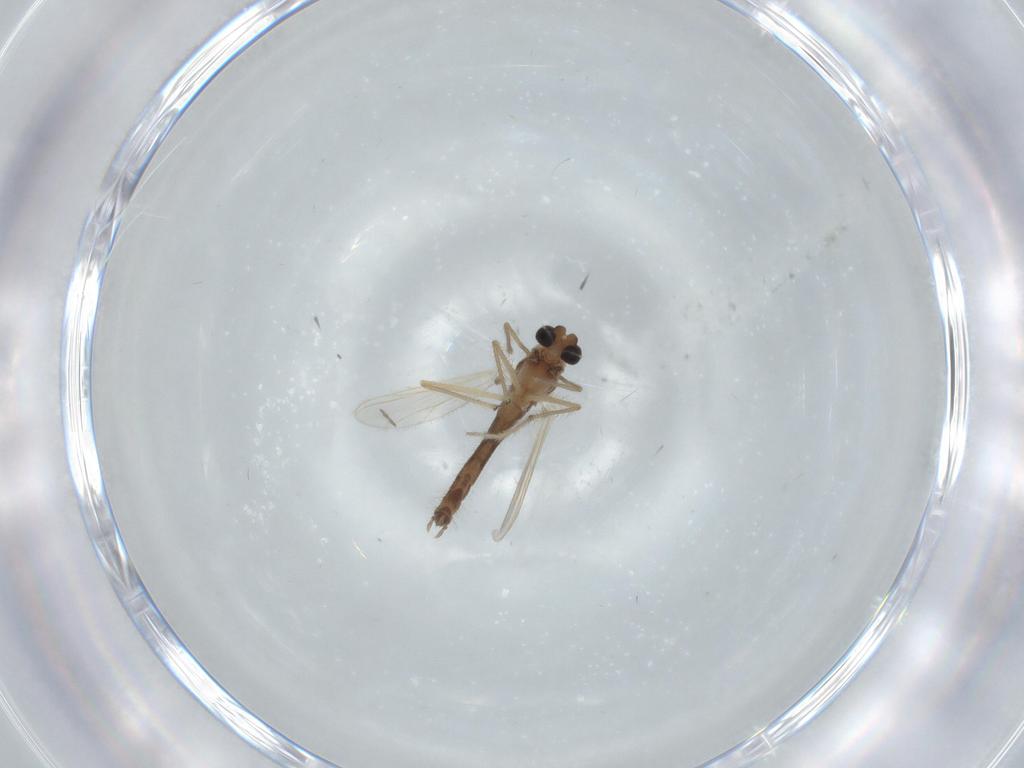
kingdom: Animalia
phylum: Arthropoda
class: Insecta
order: Diptera
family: Chironomidae
